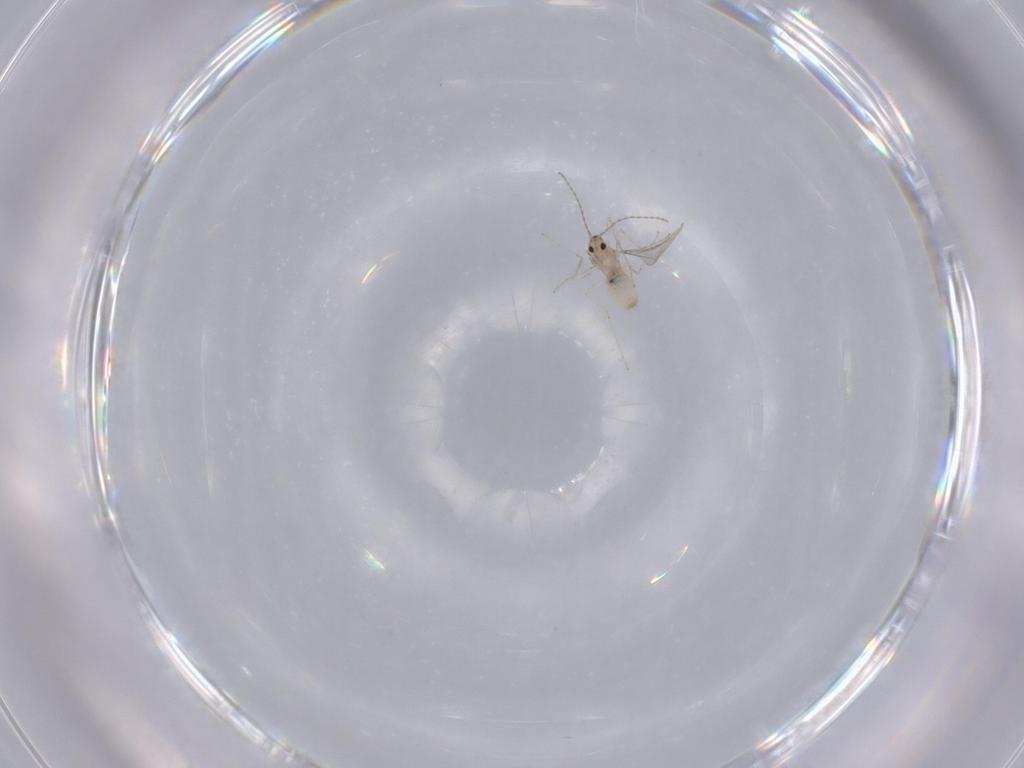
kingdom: Animalia
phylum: Arthropoda
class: Insecta
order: Diptera
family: Cecidomyiidae
